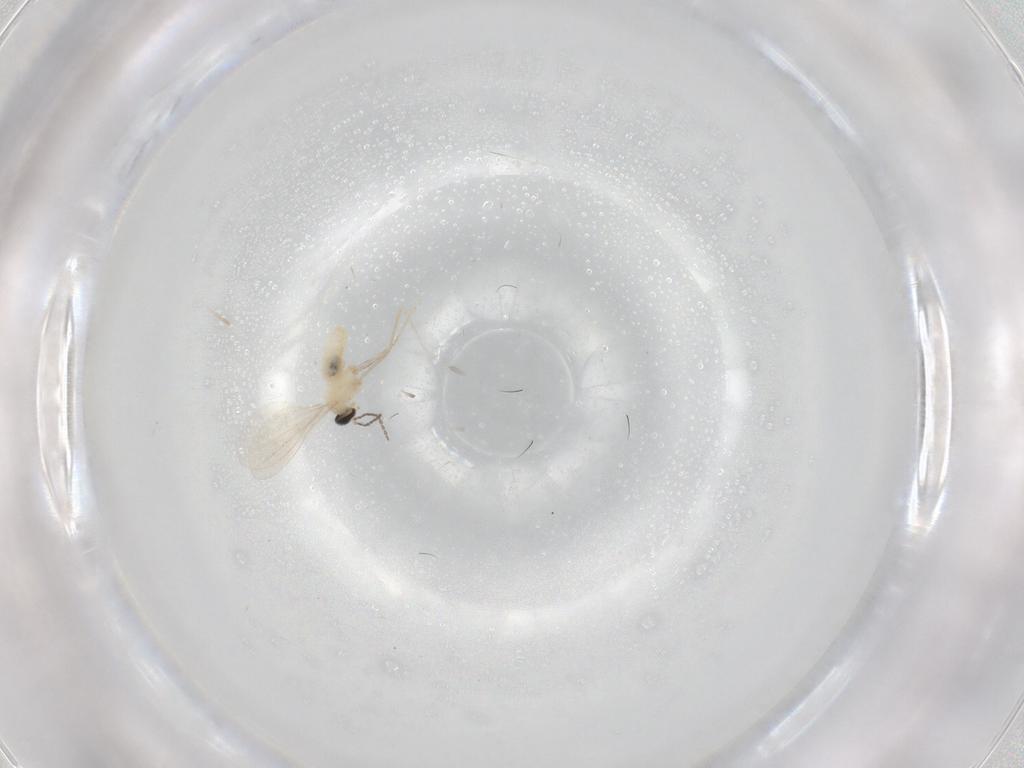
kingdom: Animalia
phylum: Arthropoda
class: Insecta
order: Diptera
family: Cecidomyiidae
